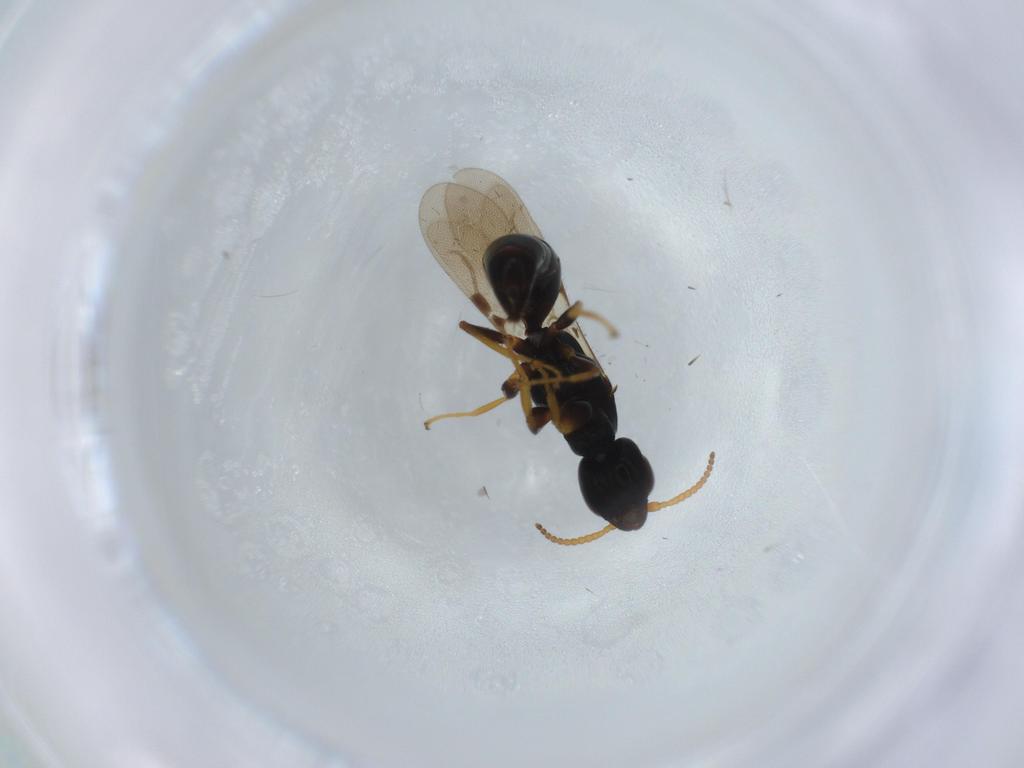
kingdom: Animalia
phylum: Arthropoda
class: Insecta
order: Hymenoptera
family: Bethylidae
